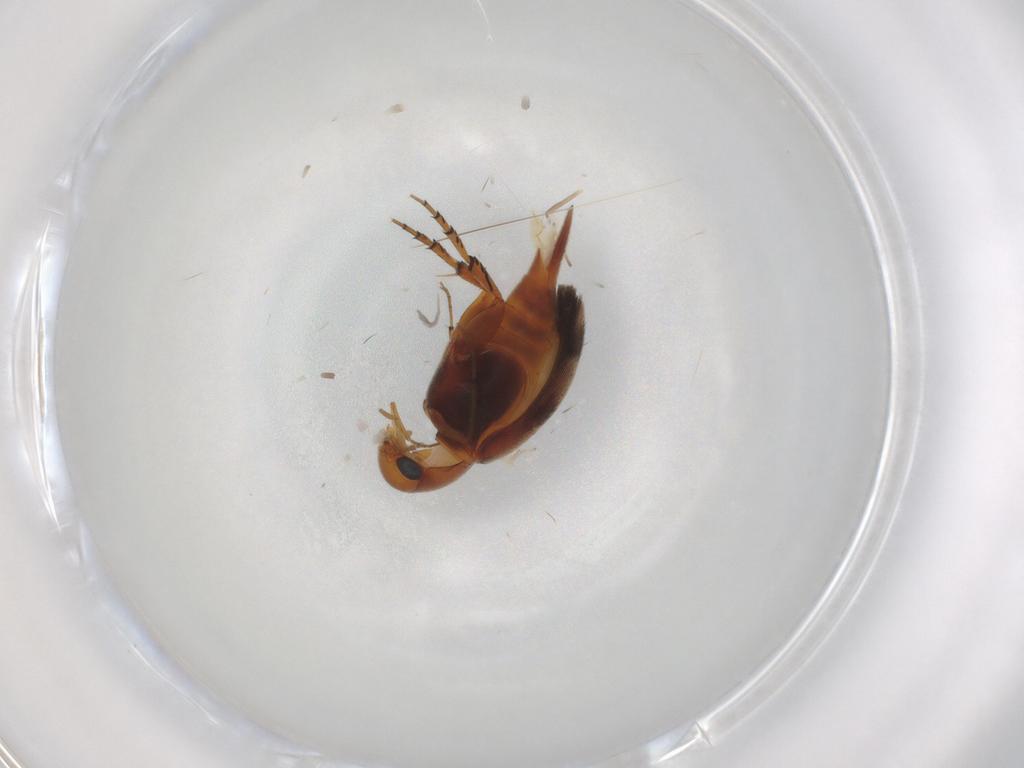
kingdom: Animalia
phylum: Arthropoda
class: Insecta
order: Coleoptera
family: Mordellidae
